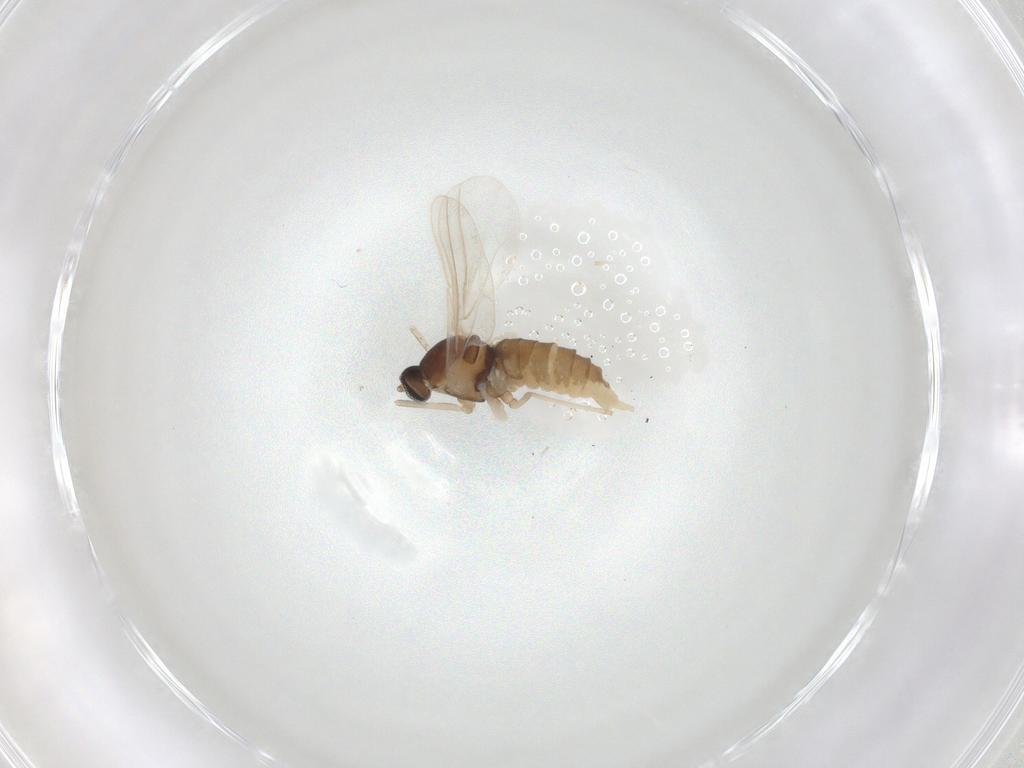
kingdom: Animalia
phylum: Arthropoda
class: Insecta
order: Diptera
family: Cecidomyiidae
